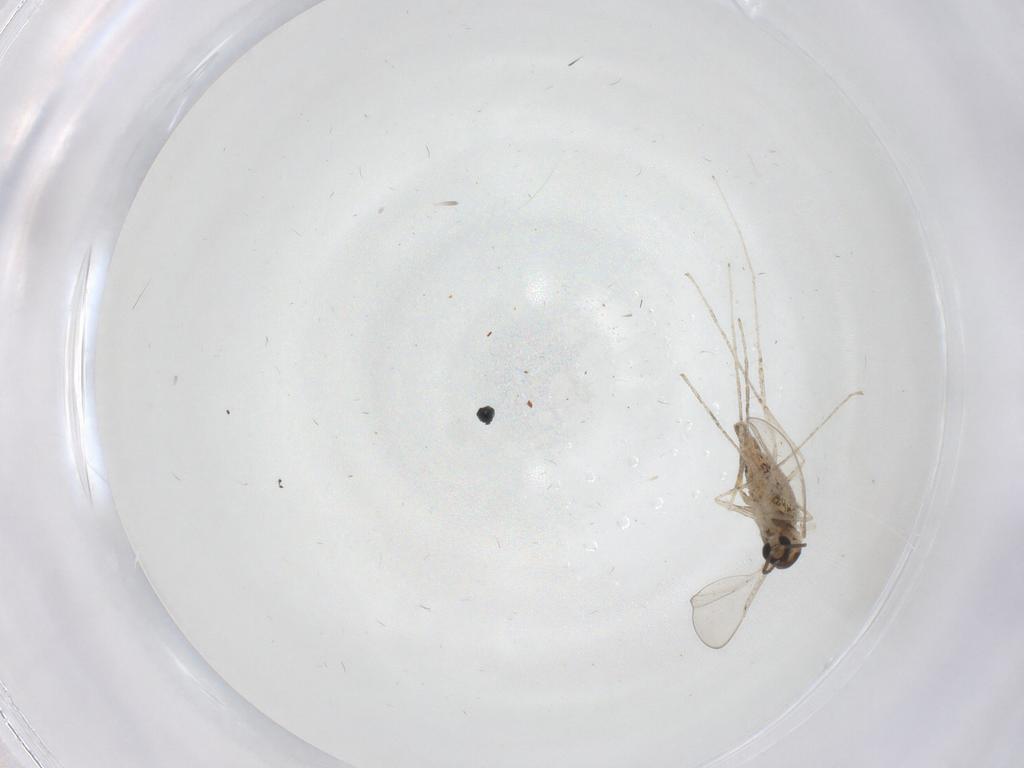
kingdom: Animalia
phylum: Arthropoda
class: Insecta
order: Diptera
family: Cecidomyiidae
